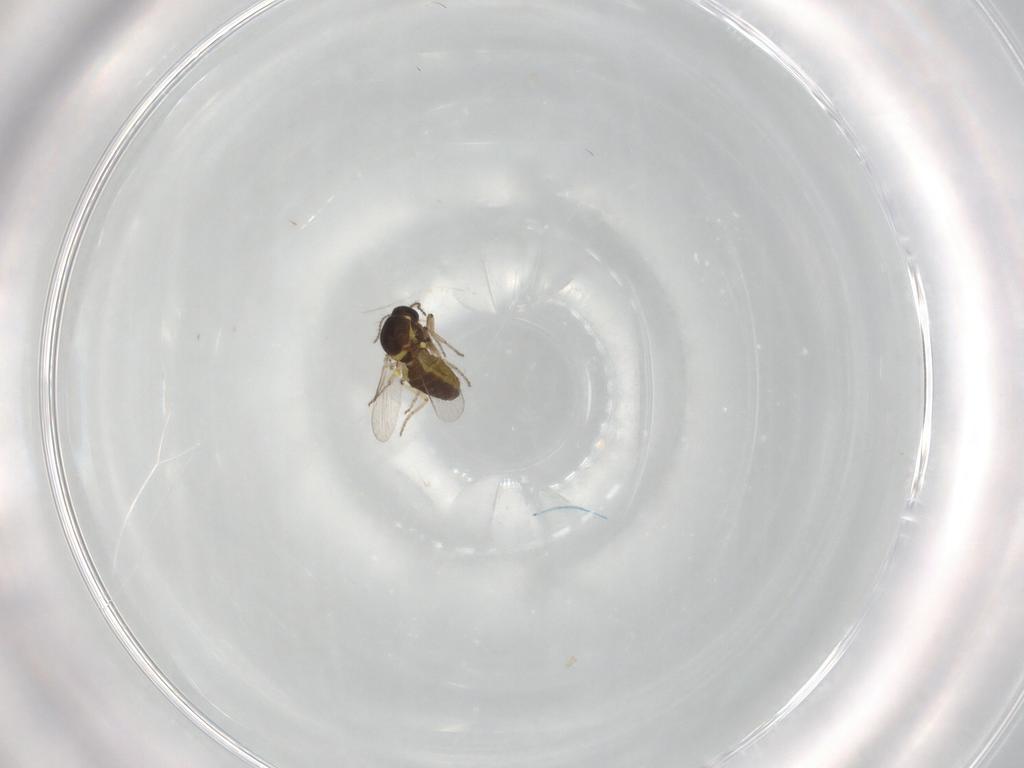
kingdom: Animalia
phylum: Arthropoda
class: Insecta
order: Diptera
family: Ceratopogonidae
